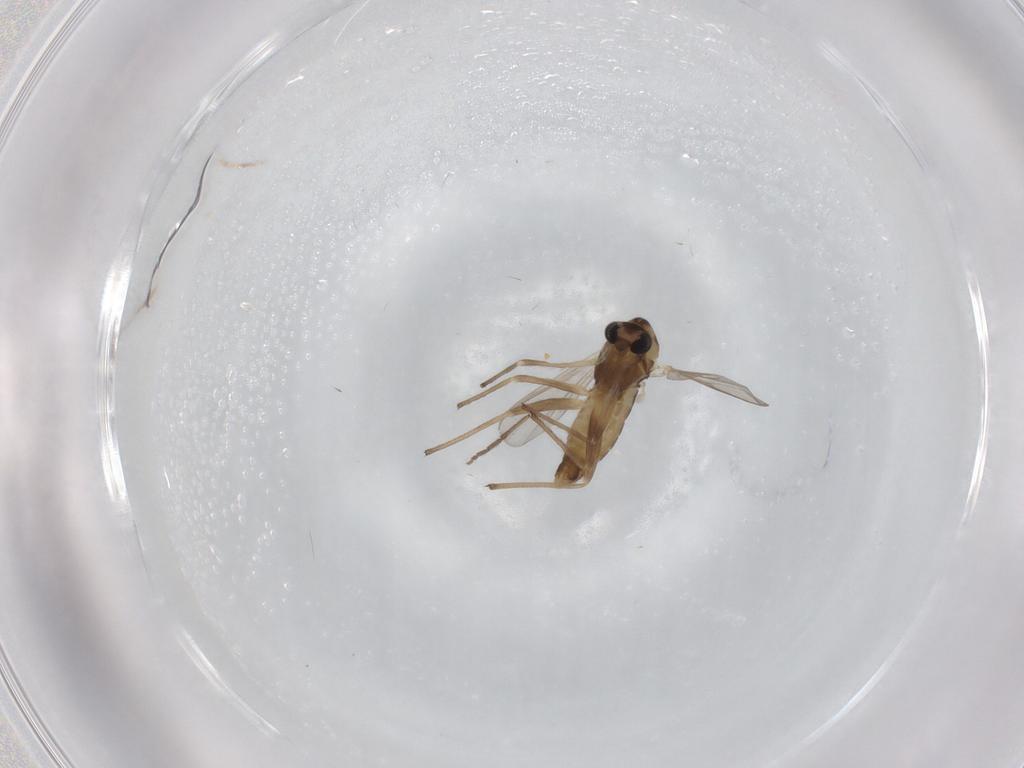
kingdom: Animalia
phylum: Arthropoda
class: Insecta
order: Diptera
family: Chironomidae
